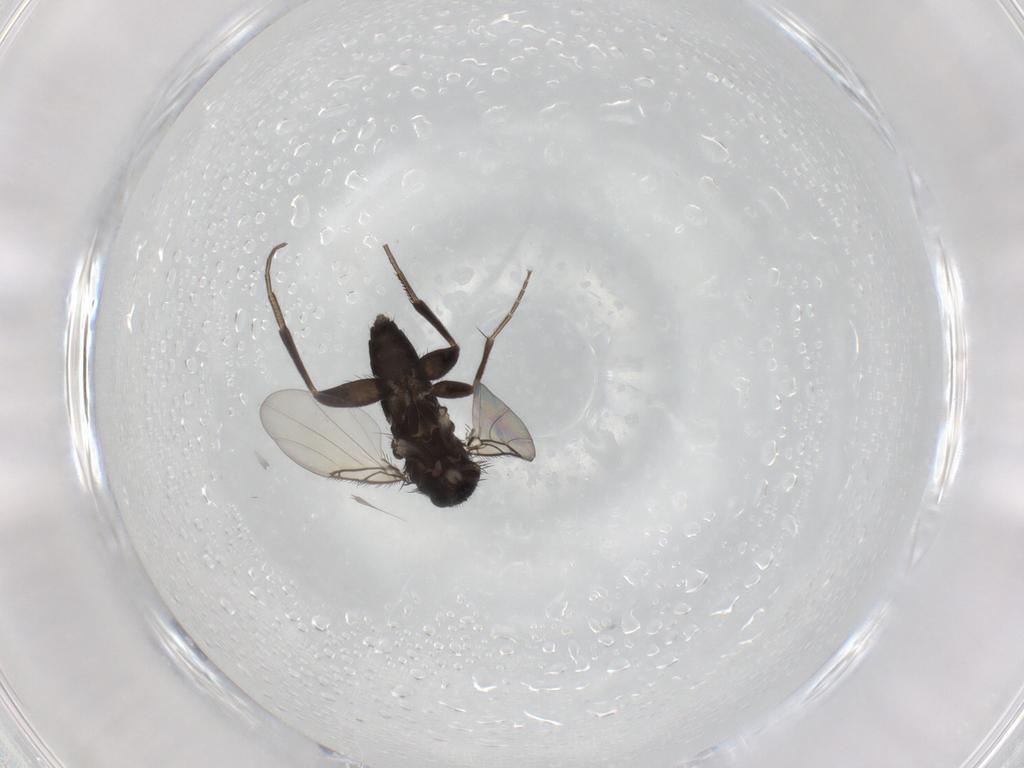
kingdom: Animalia
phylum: Arthropoda
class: Insecta
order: Diptera
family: Phoridae
